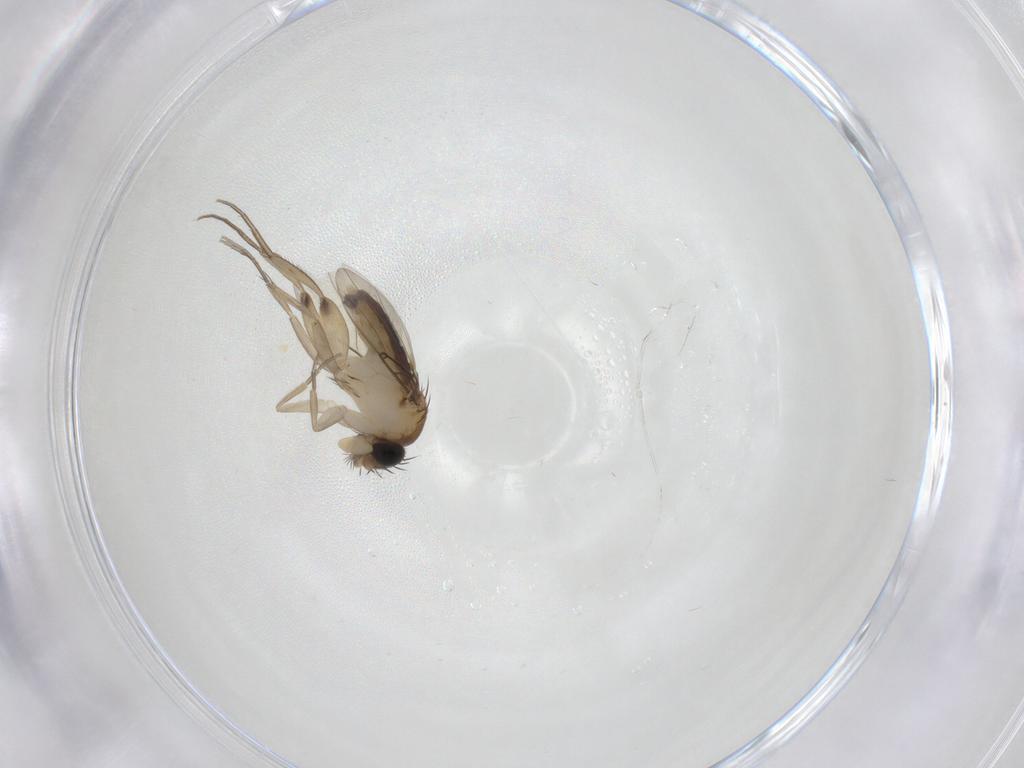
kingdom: Animalia
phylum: Arthropoda
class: Insecta
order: Diptera
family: Phoridae
